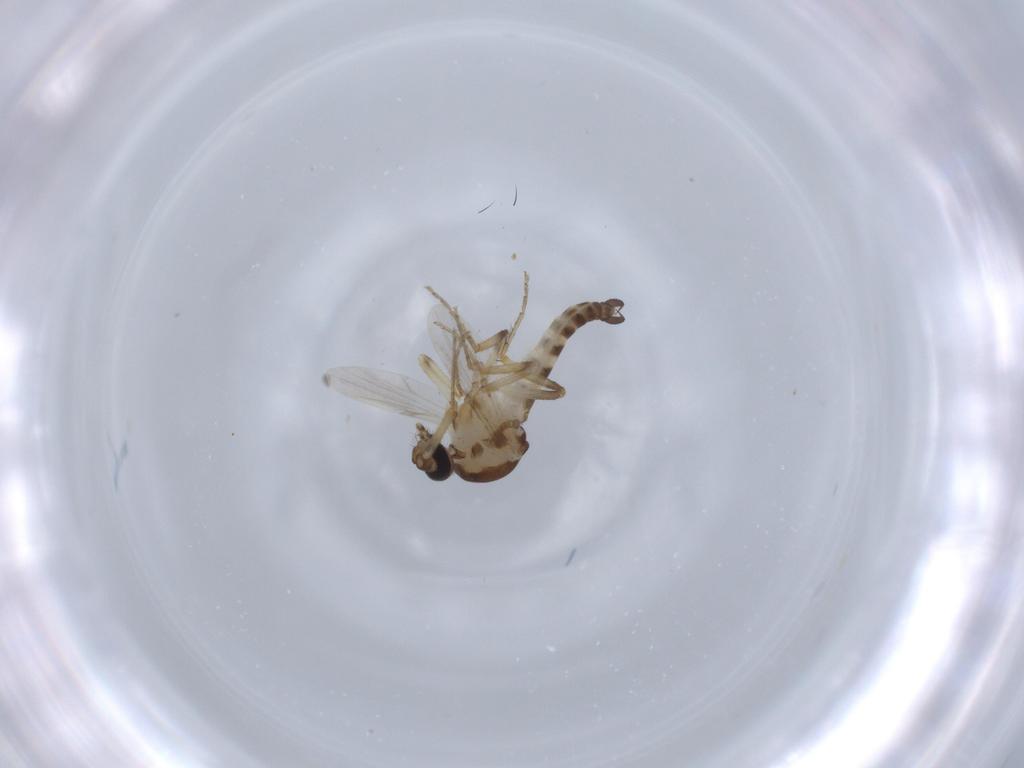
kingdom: Animalia
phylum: Arthropoda
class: Insecta
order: Diptera
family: Ceratopogonidae
